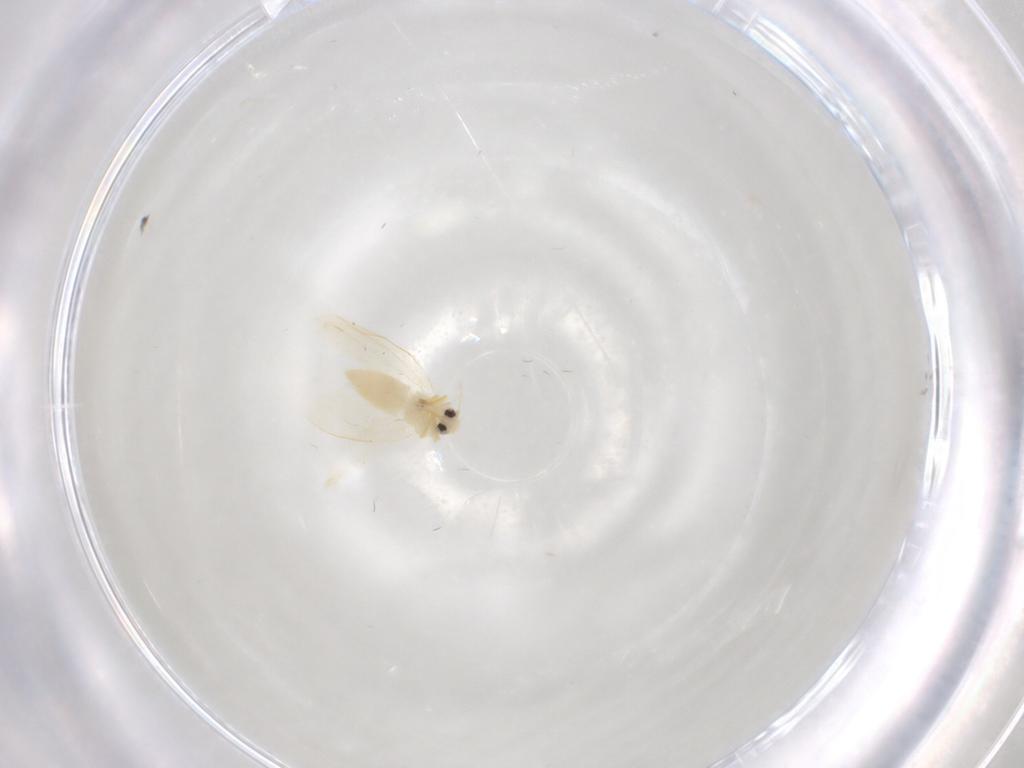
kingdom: Animalia
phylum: Arthropoda
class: Insecta
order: Hemiptera
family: Aleyrodidae
